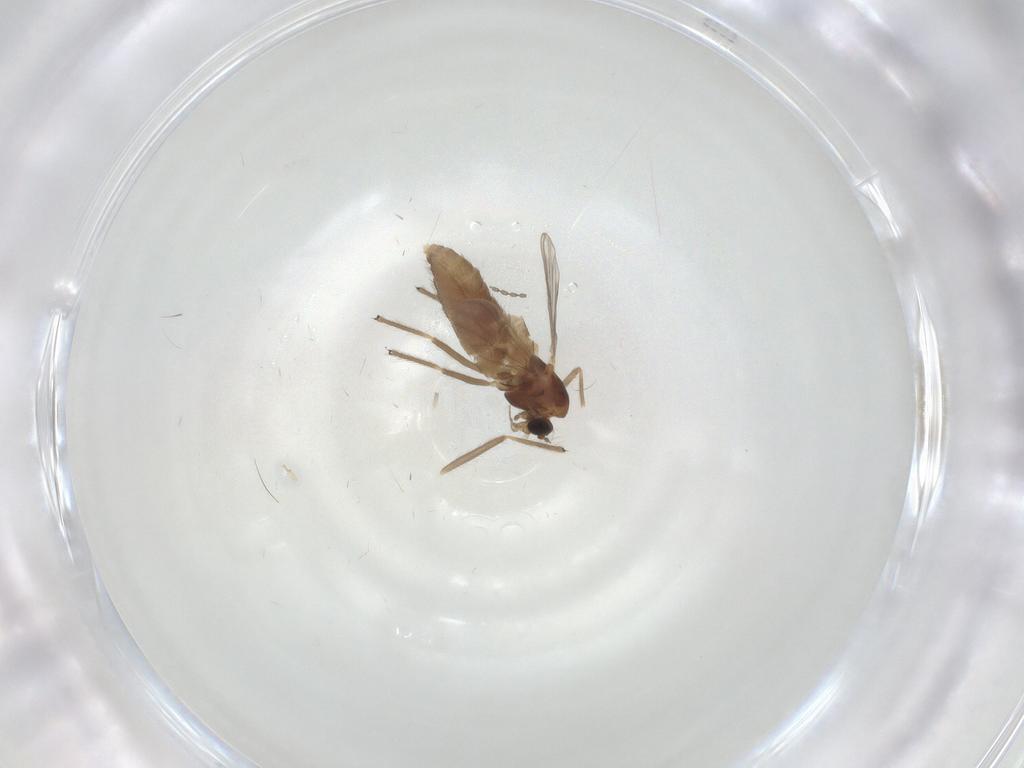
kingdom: Animalia
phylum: Arthropoda
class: Insecta
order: Diptera
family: Chironomidae
